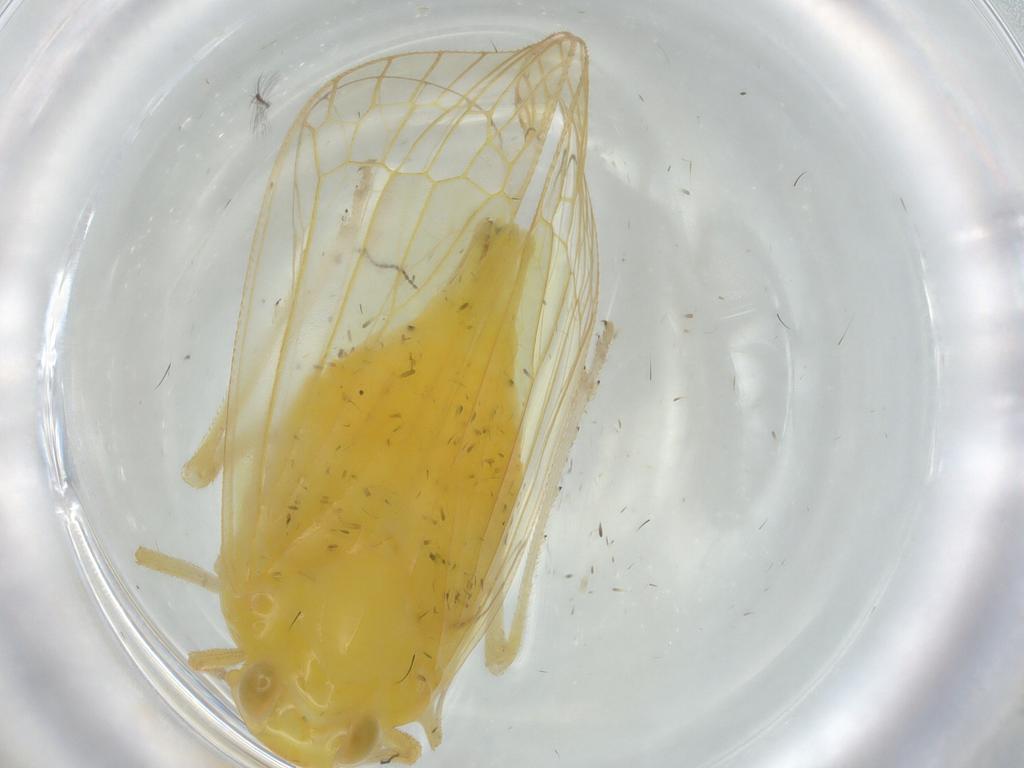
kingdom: Animalia
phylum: Arthropoda
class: Insecta
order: Hemiptera
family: Tropiduchidae
